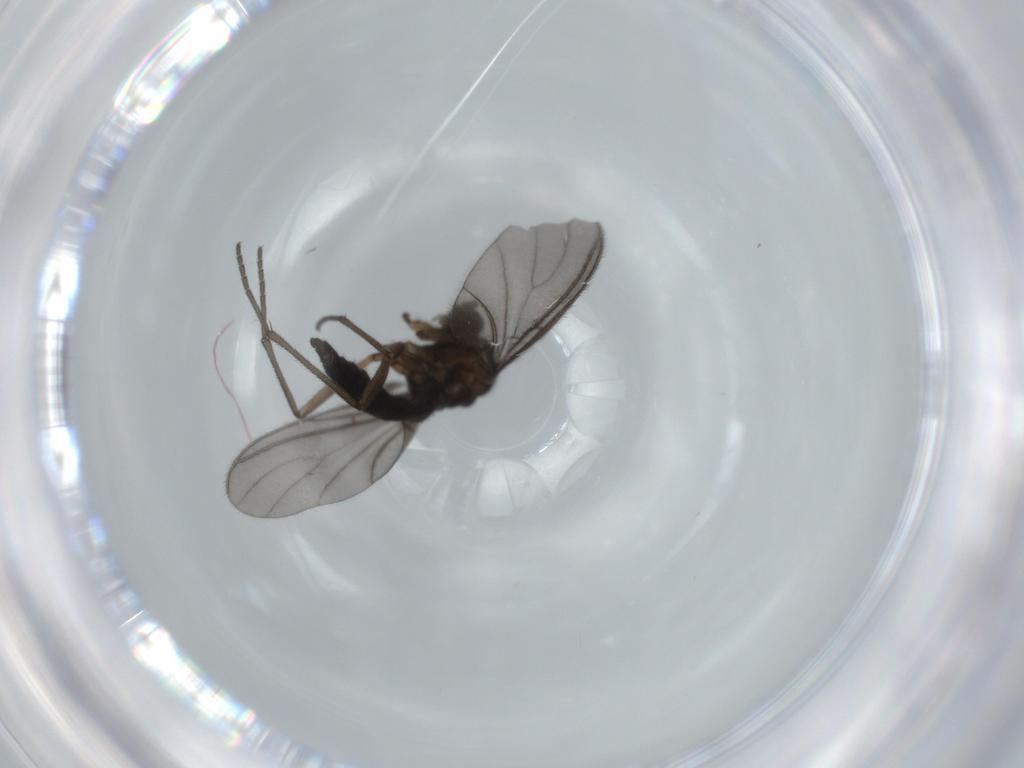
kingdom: Animalia
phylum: Arthropoda
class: Insecta
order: Diptera
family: Sciaridae
